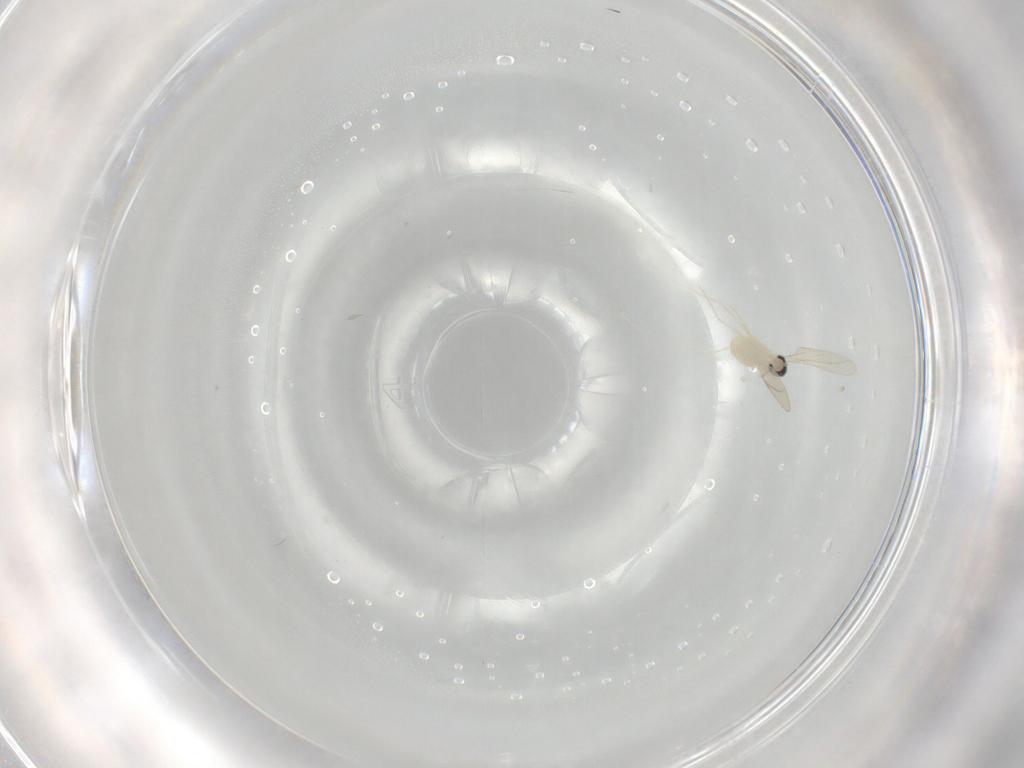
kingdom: Animalia
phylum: Arthropoda
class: Insecta
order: Diptera
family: Cecidomyiidae
